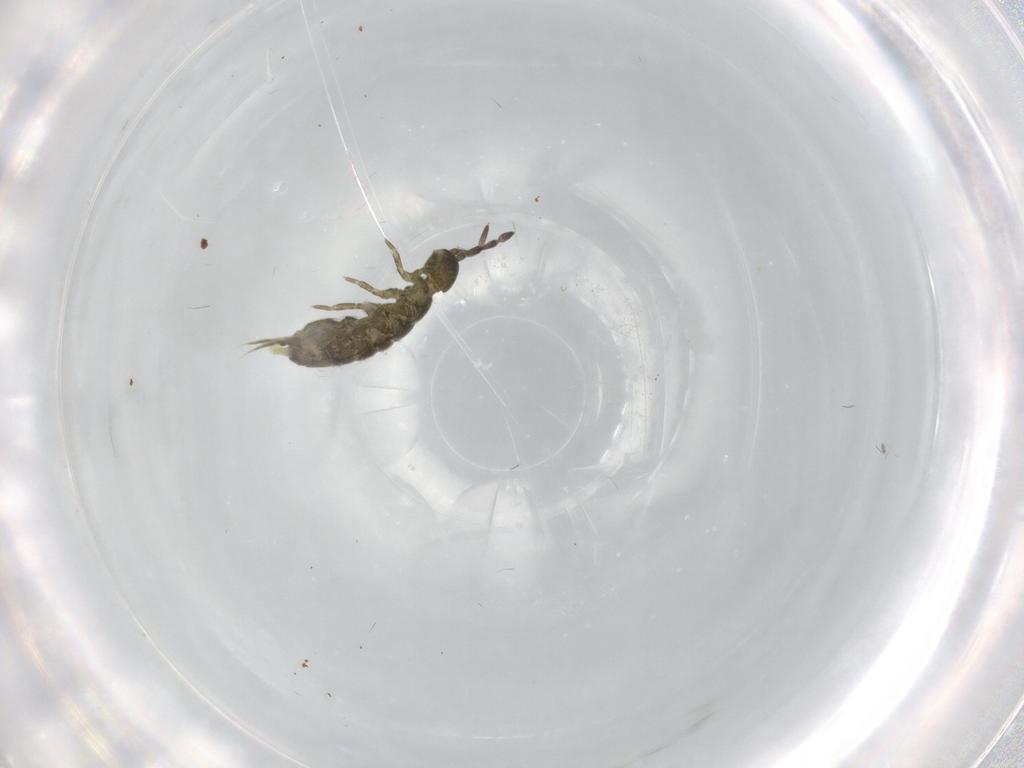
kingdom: Animalia
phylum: Arthropoda
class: Collembola
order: Entomobryomorpha
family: Isotomidae
